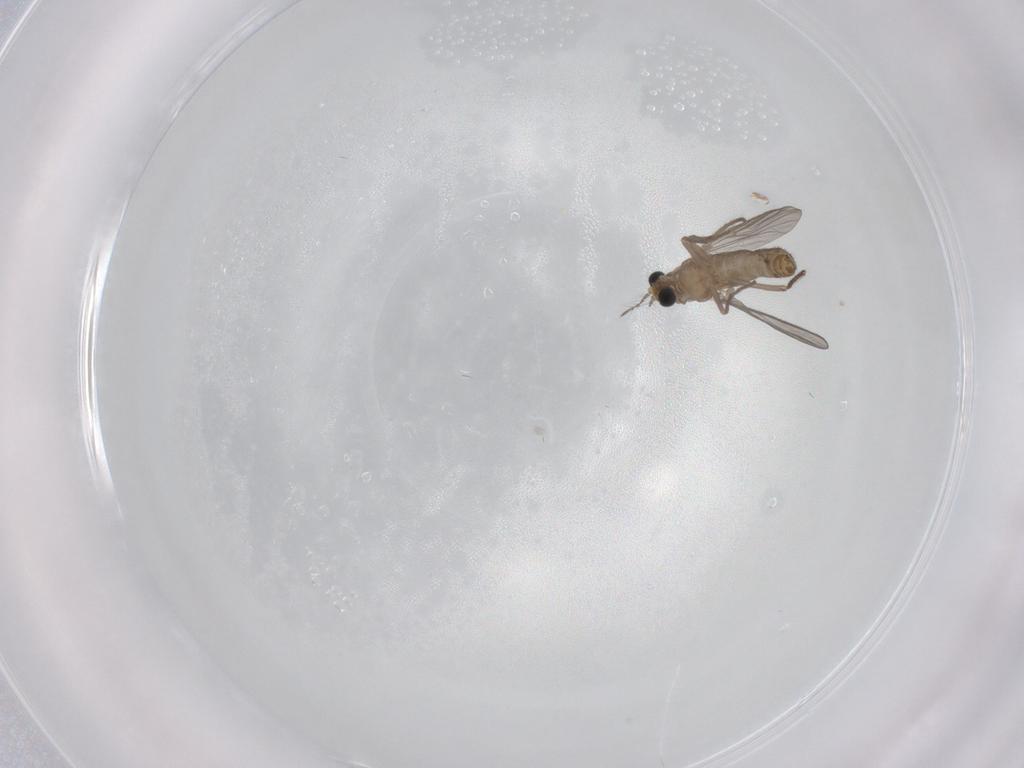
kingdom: Animalia
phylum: Arthropoda
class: Insecta
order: Diptera
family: Chironomidae
